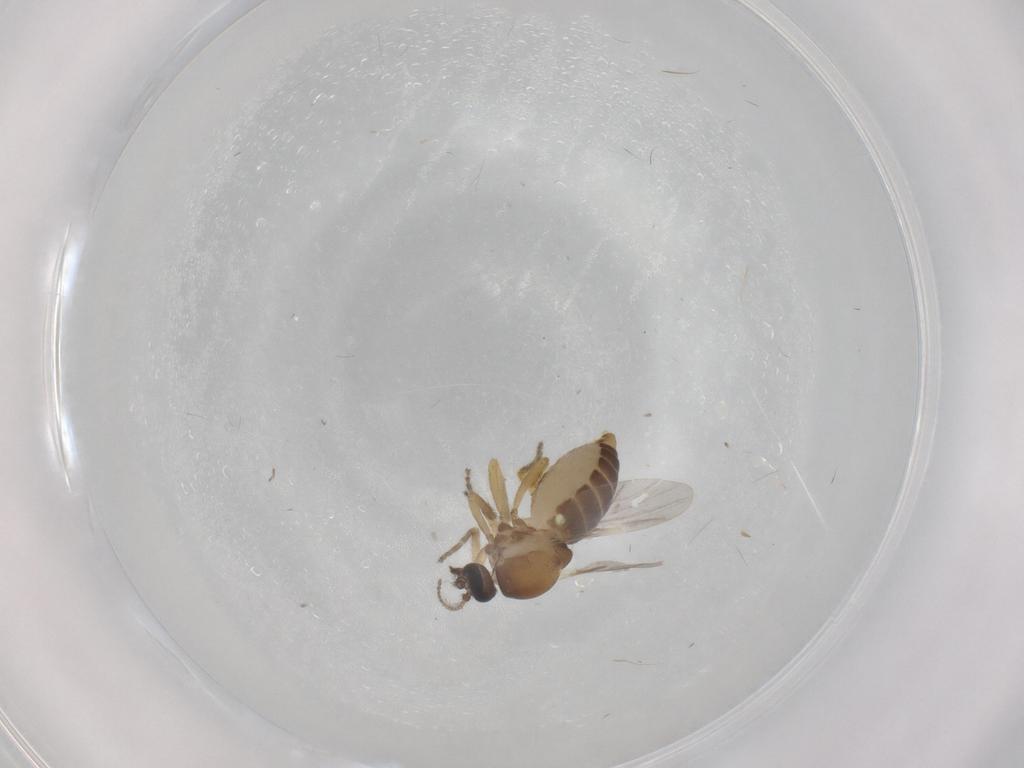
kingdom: Animalia
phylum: Arthropoda
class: Insecta
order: Diptera
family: Ceratopogonidae
